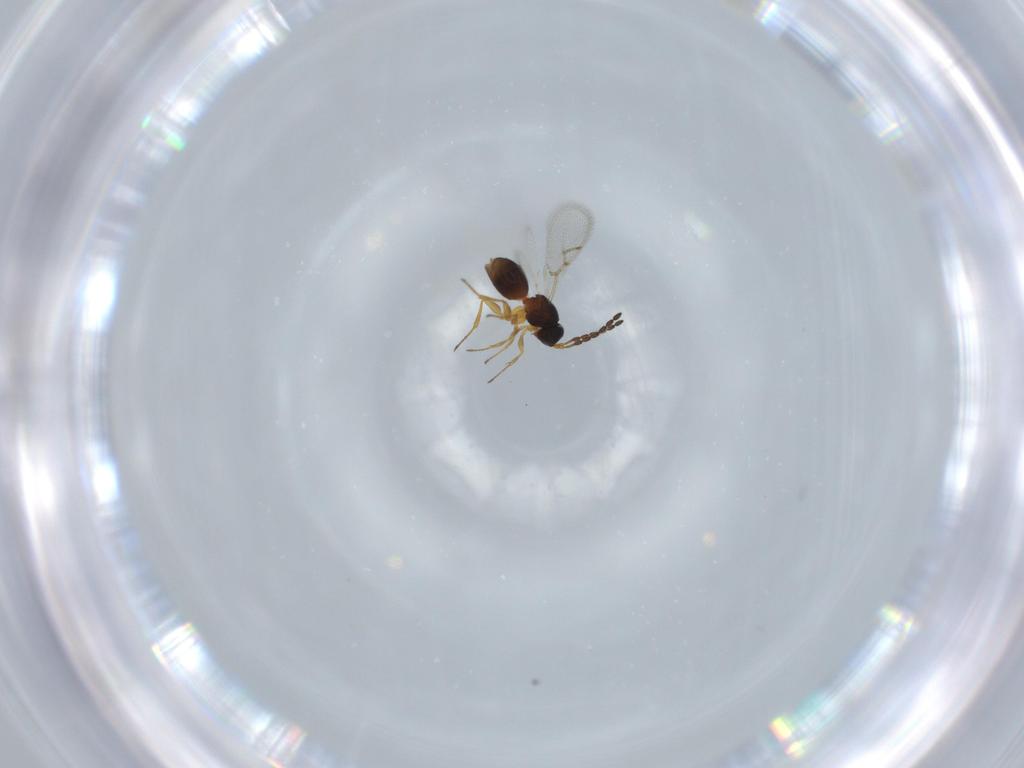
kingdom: Animalia
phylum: Arthropoda
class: Insecta
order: Hymenoptera
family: Figitidae
